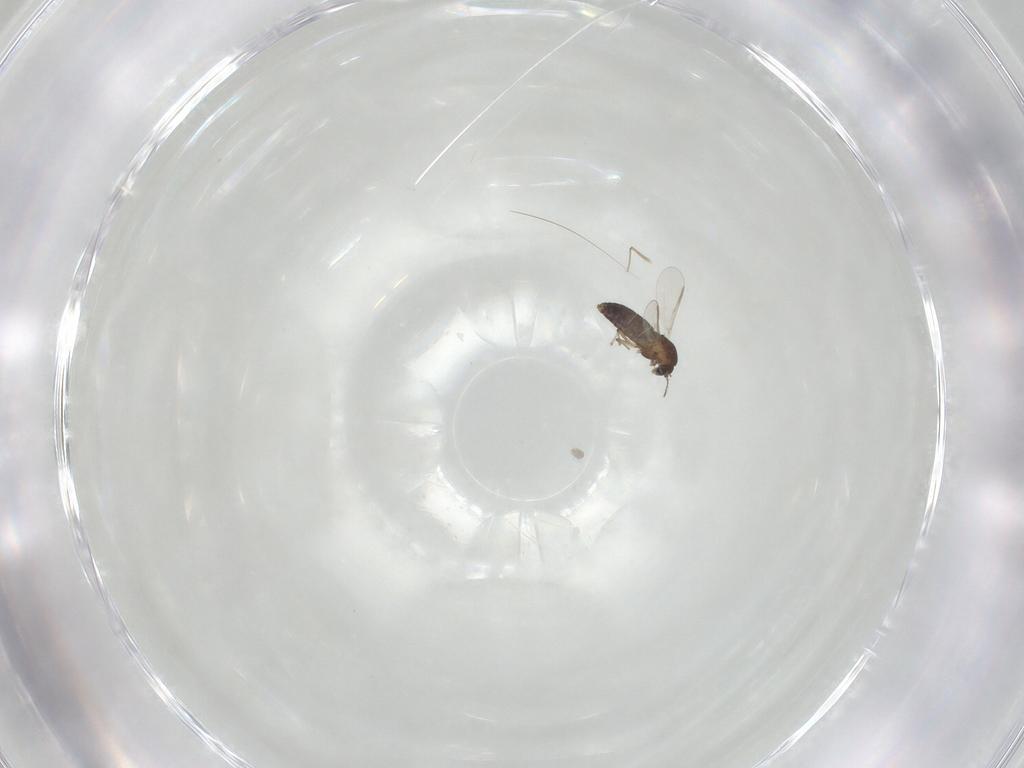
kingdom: Animalia
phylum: Arthropoda
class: Insecta
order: Diptera
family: Chironomidae
